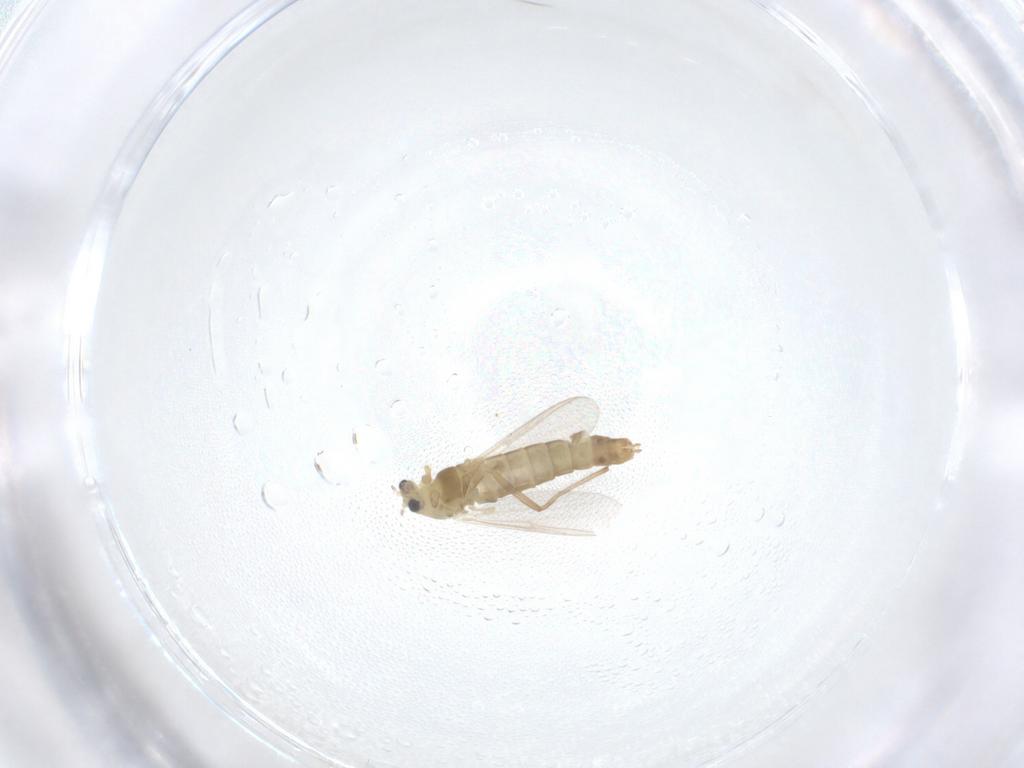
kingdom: Animalia
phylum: Arthropoda
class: Insecta
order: Diptera
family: Chironomidae
